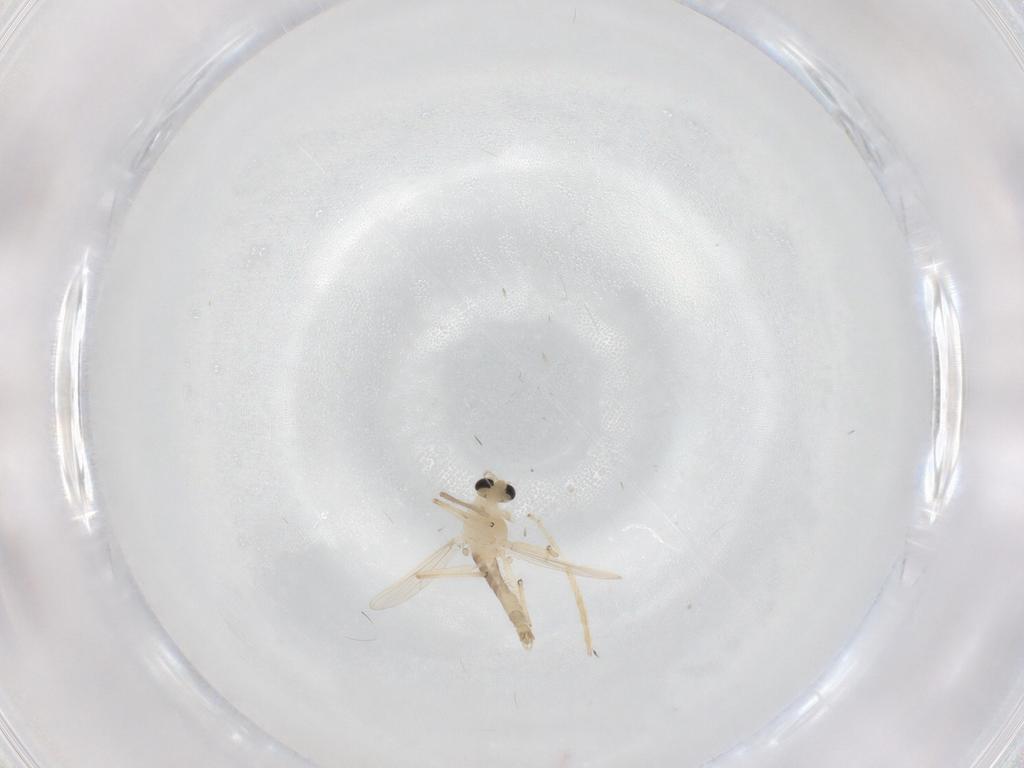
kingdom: Animalia
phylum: Arthropoda
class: Insecta
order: Diptera
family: Chironomidae
